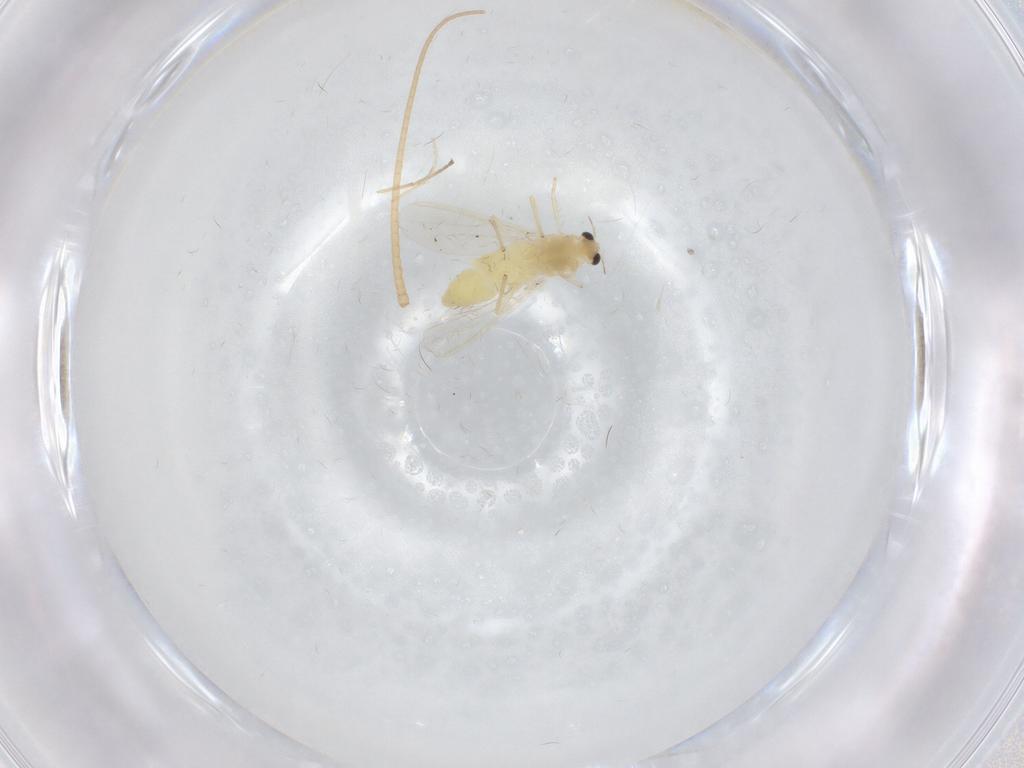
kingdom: Animalia
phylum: Arthropoda
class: Insecta
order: Diptera
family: Chironomidae
